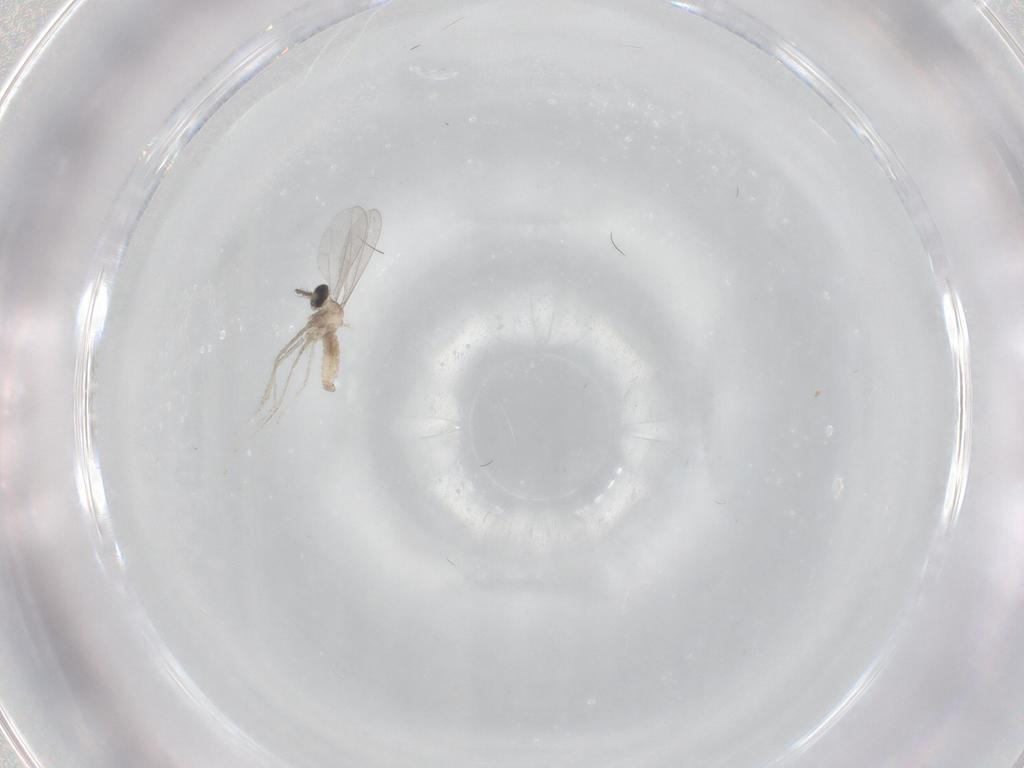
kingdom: Animalia
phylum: Arthropoda
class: Insecta
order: Diptera
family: Cecidomyiidae
